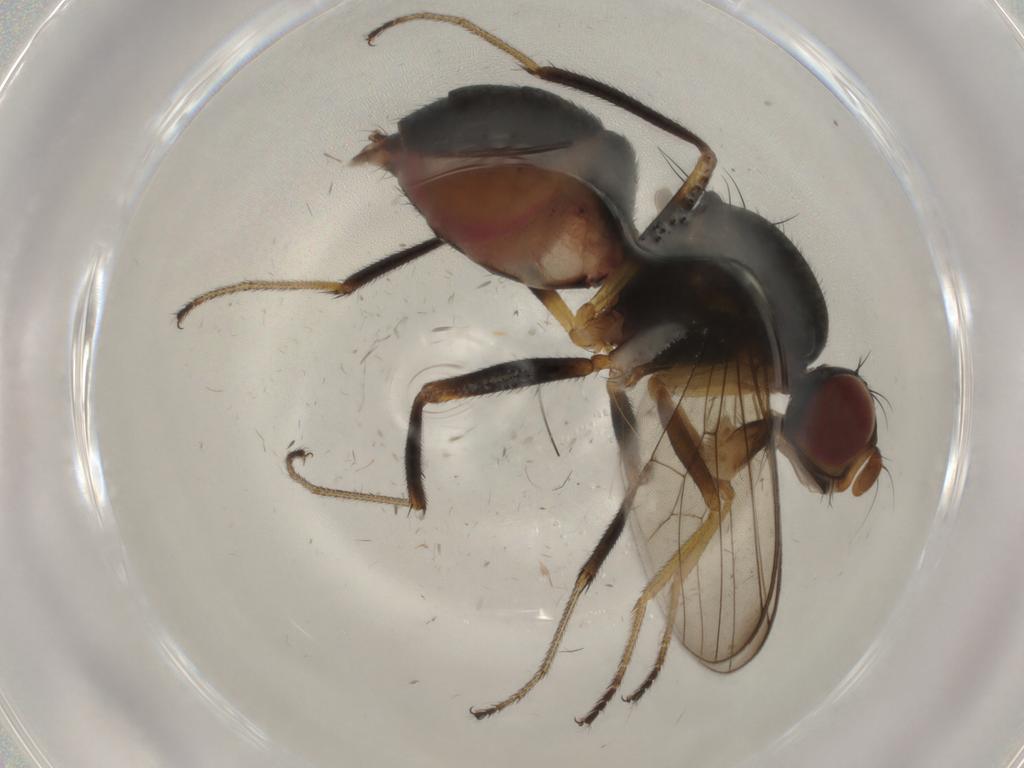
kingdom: Animalia
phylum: Arthropoda
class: Insecta
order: Diptera
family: Sepsidae
